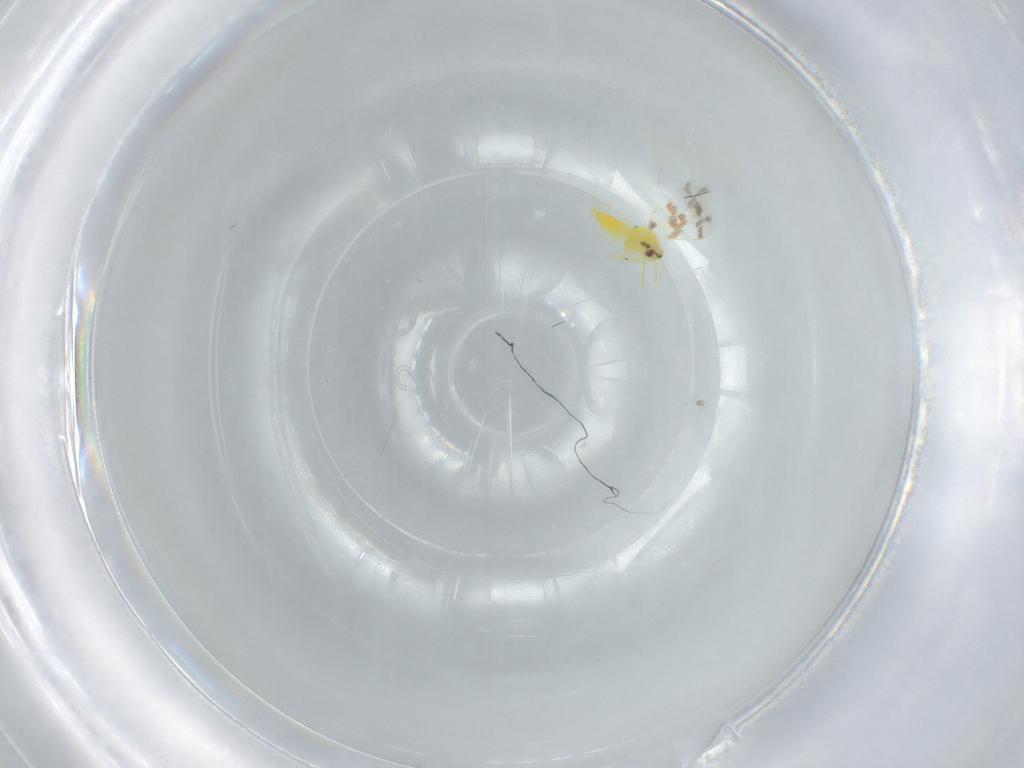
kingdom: Animalia
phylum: Arthropoda
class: Insecta
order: Hemiptera
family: Aleyrodidae
